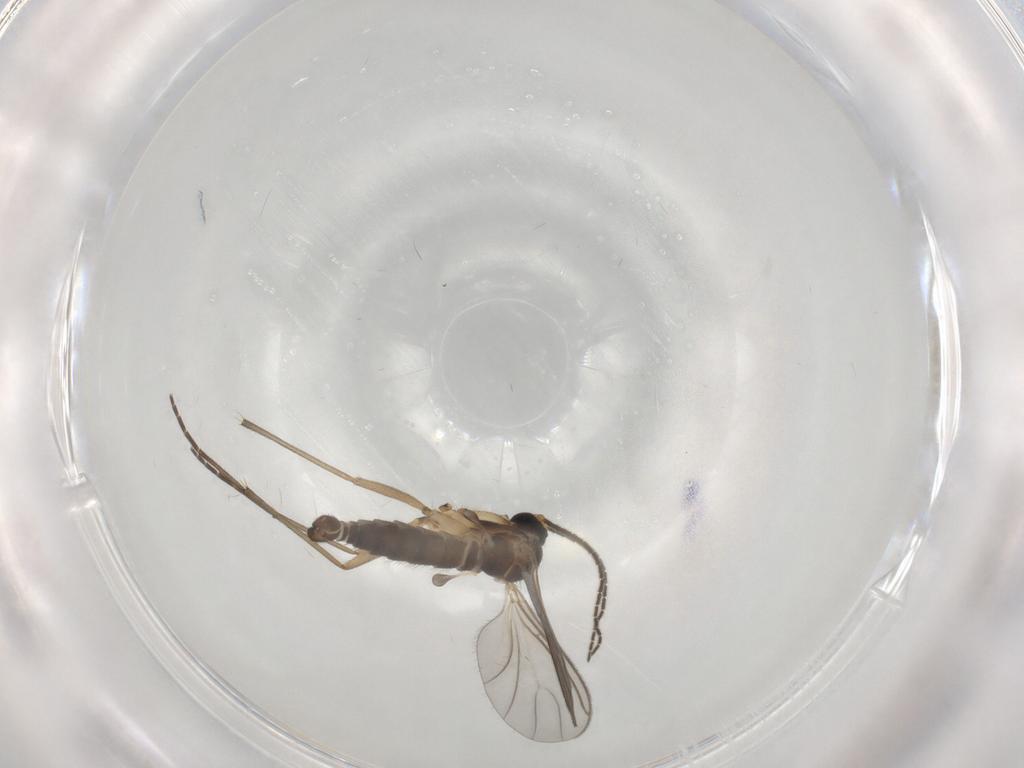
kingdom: Animalia
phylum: Arthropoda
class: Insecta
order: Diptera
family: Sciaridae
